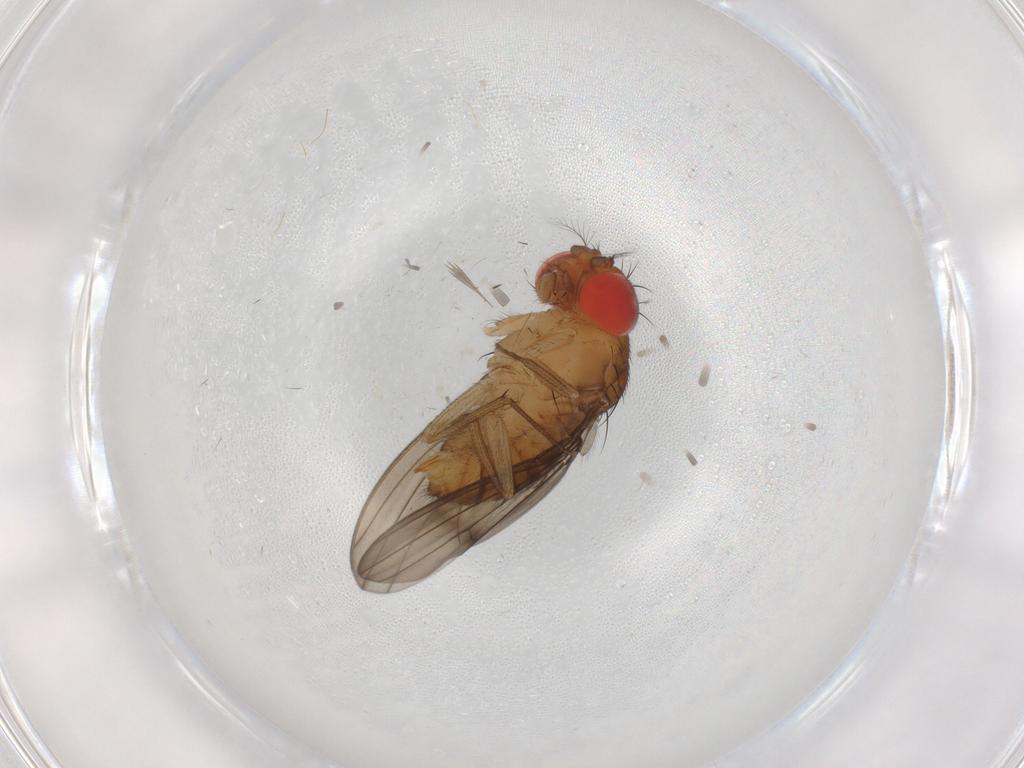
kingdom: Animalia
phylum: Arthropoda
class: Insecta
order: Diptera
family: Drosophilidae
